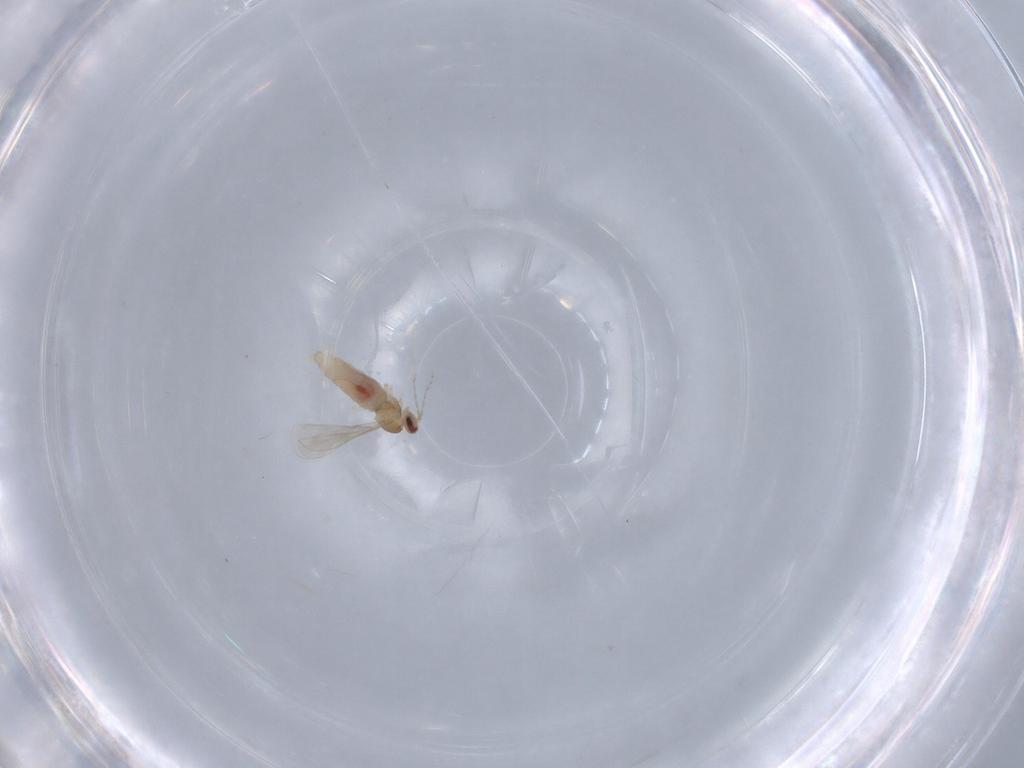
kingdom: Animalia
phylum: Arthropoda
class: Insecta
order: Diptera
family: Cecidomyiidae
